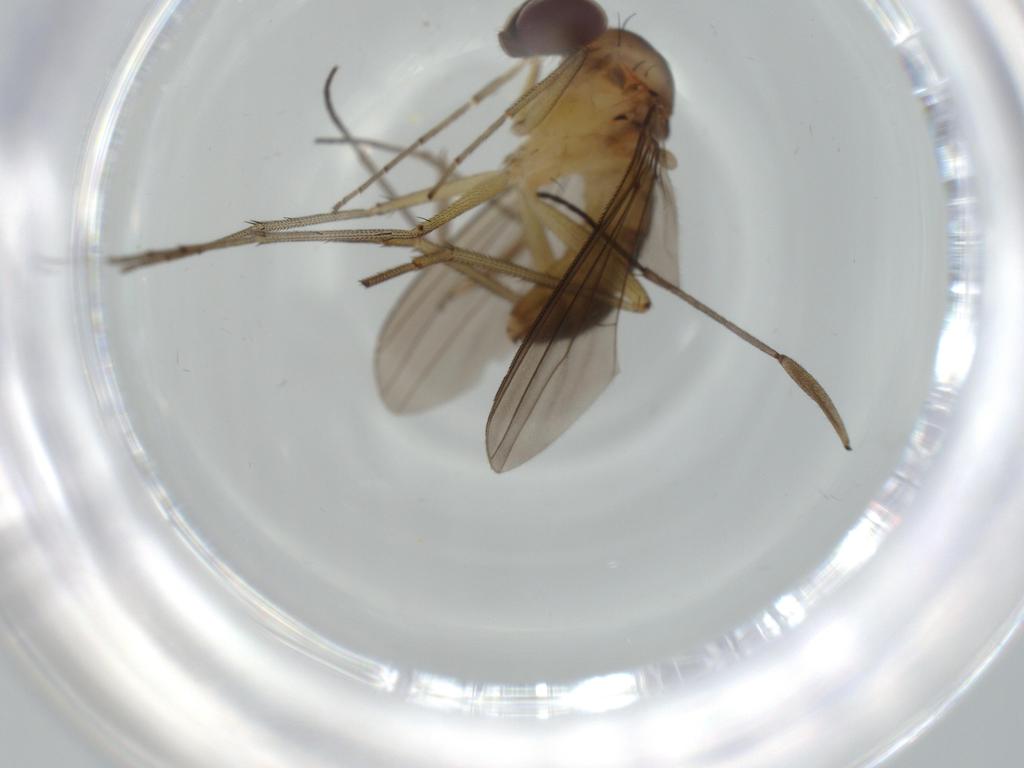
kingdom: Animalia
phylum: Arthropoda
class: Insecta
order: Diptera
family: Sciaridae
